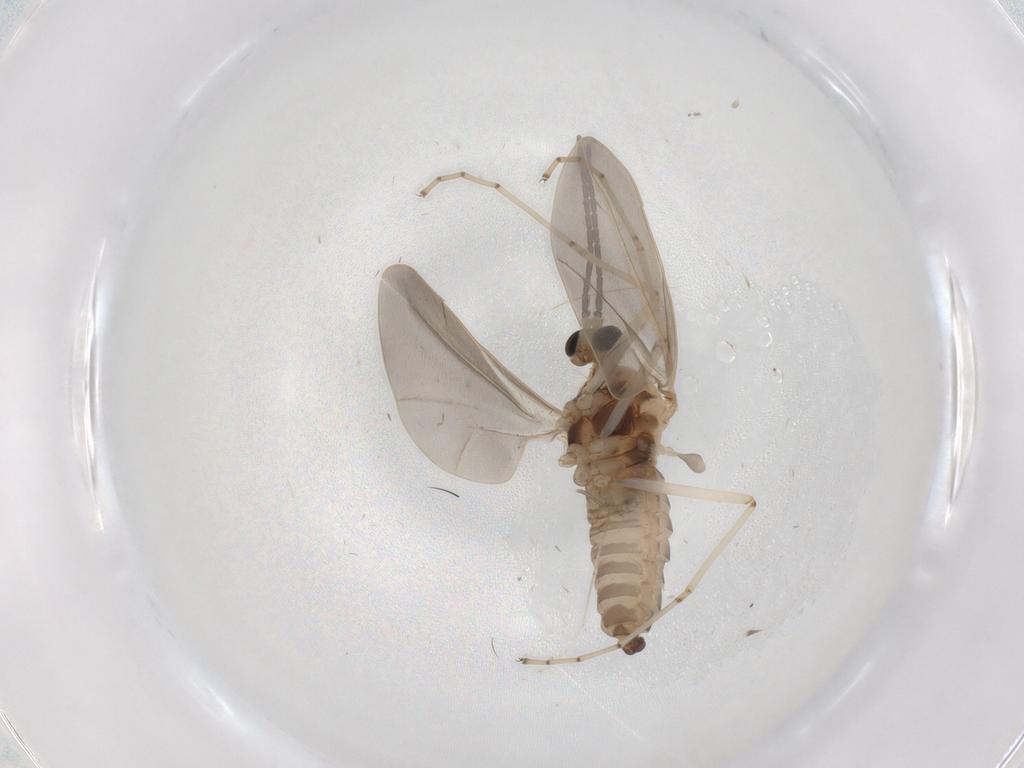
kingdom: Animalia
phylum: Arthropoda
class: Insecta
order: Diptera
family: Cecidomyiidae
